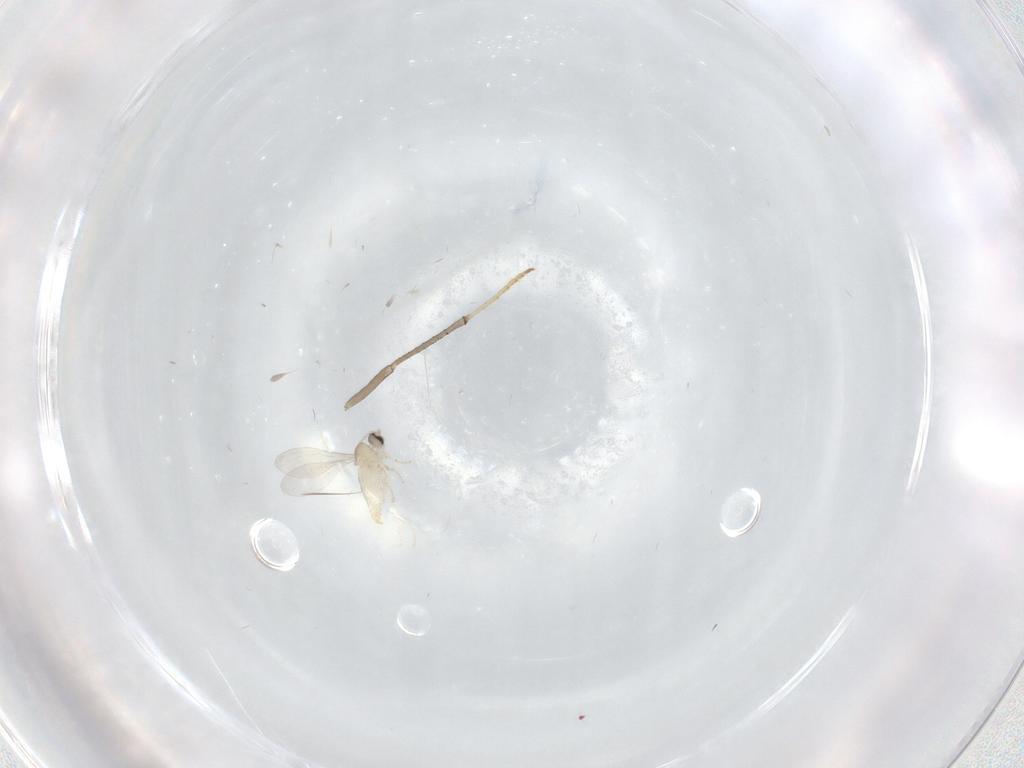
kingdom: Animalia
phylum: Arthropoda
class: Insecta
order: Diptera
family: Psychodidae
